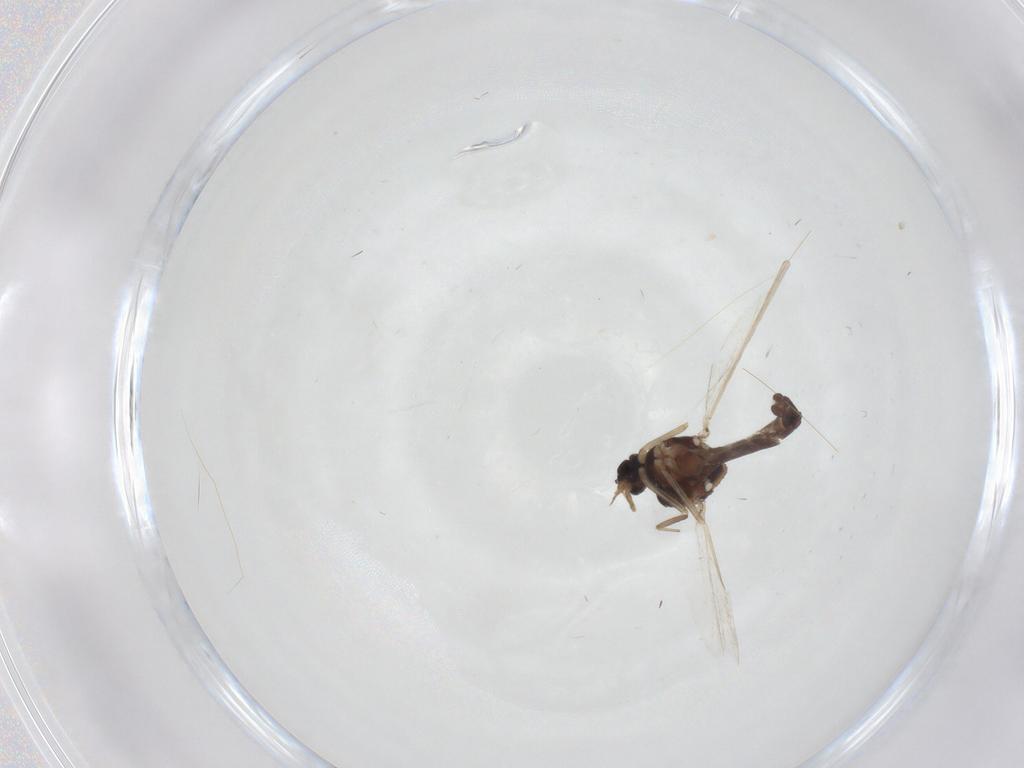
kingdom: Animalia
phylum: Arthropoda
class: Insecta
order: Diptera
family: Ceratopogonidae
